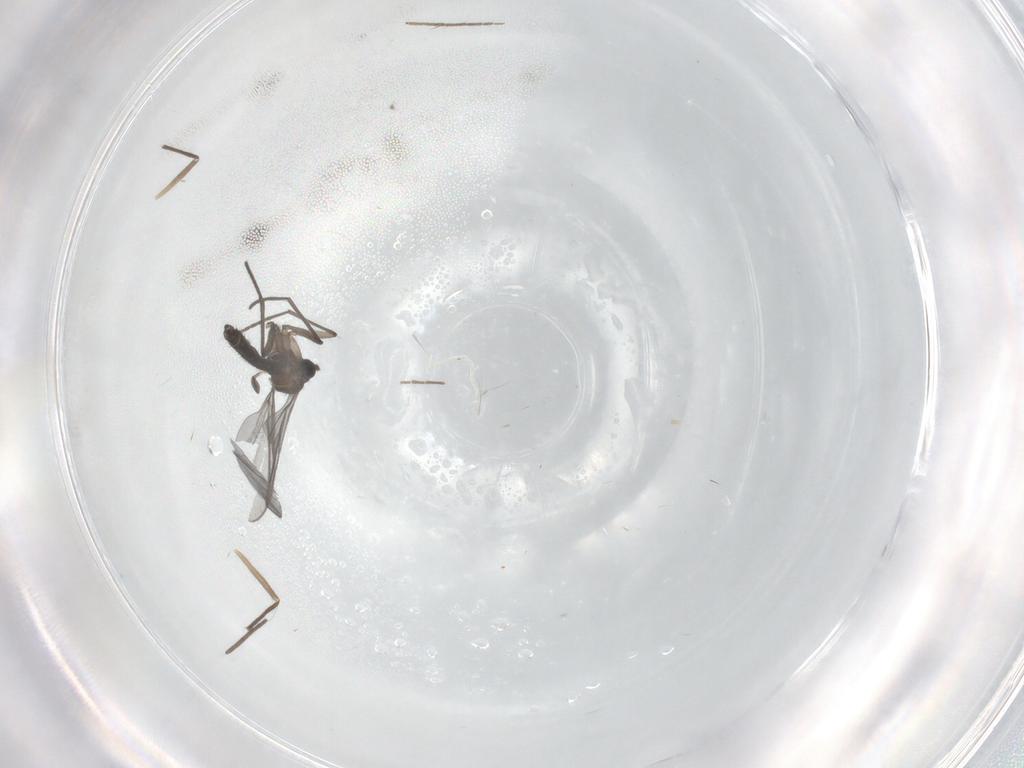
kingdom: Animalia
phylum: Arthropoda
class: Insecta
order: Diptera
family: Chironomidae
